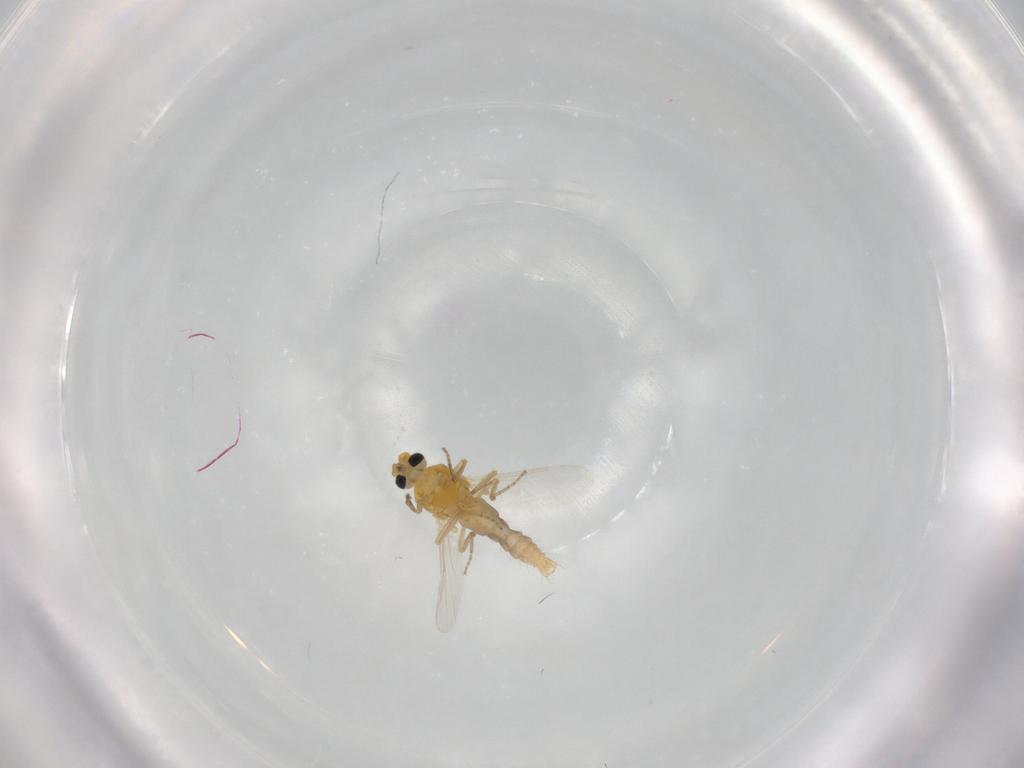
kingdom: Animalia
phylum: Arthropoda
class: Insecta
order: Diptera
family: Ceratopogonidae
